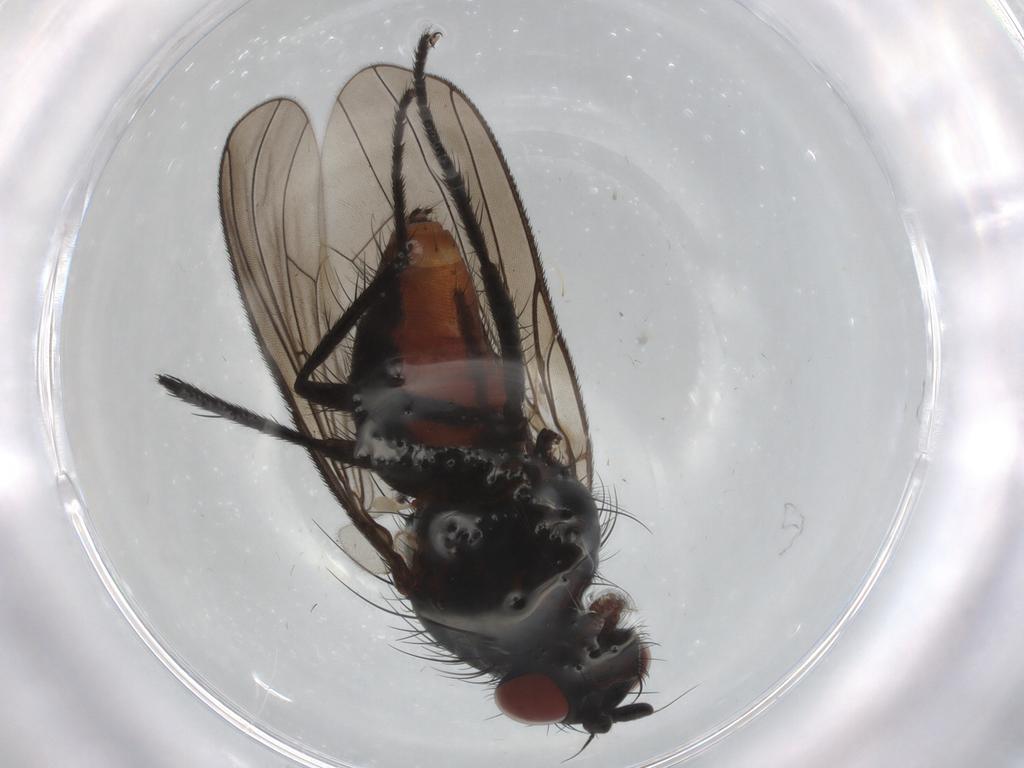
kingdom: Animalia
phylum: Arthropoda
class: Insecta
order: Diptera
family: Anthomyiidae
